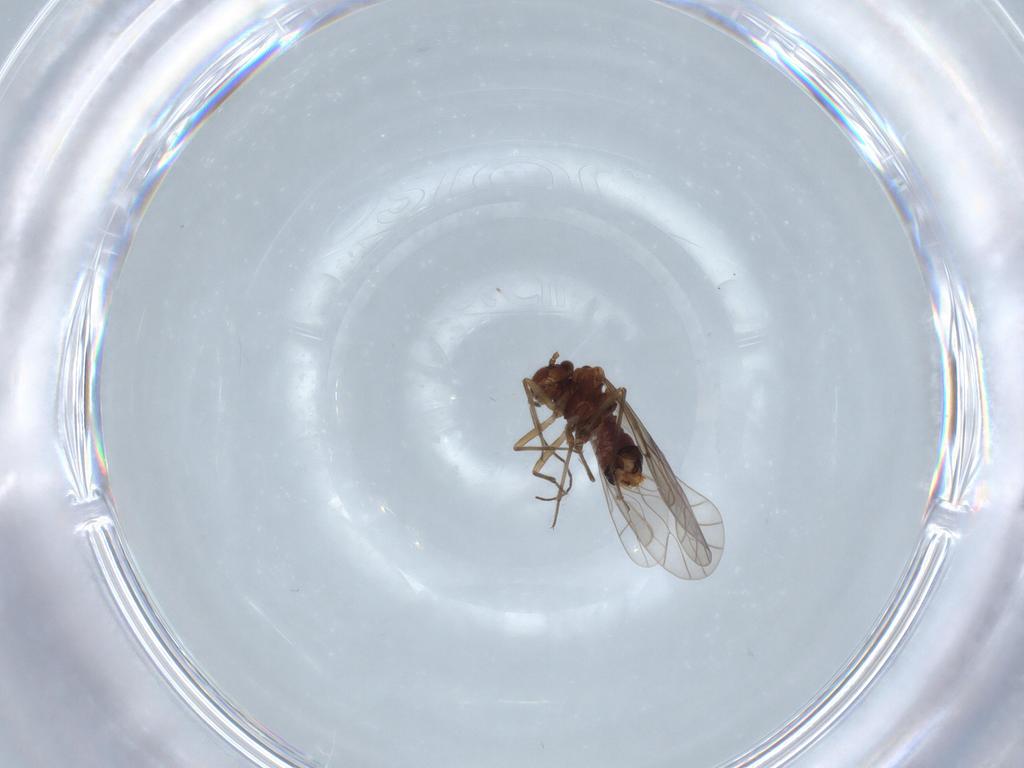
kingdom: Animalia
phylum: Arthropoda
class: Insecta
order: Psocodea
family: Lachesillidae
